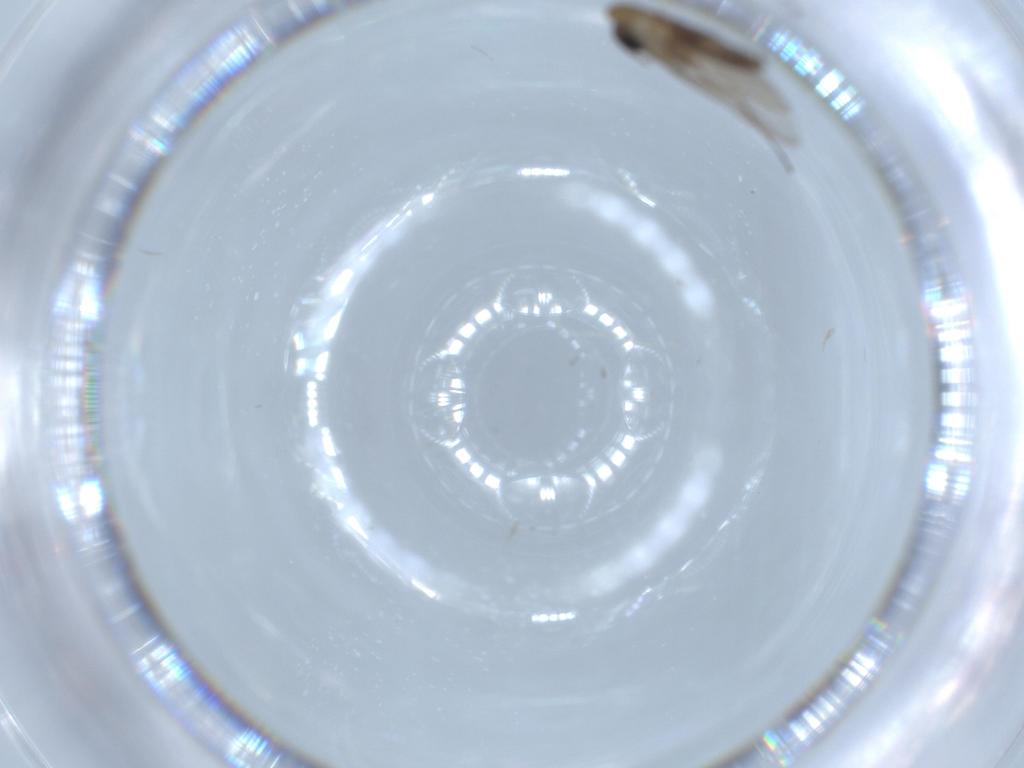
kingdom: Animalia
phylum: Arthropoda
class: Insecta
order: Diptera
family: Psychodidae
